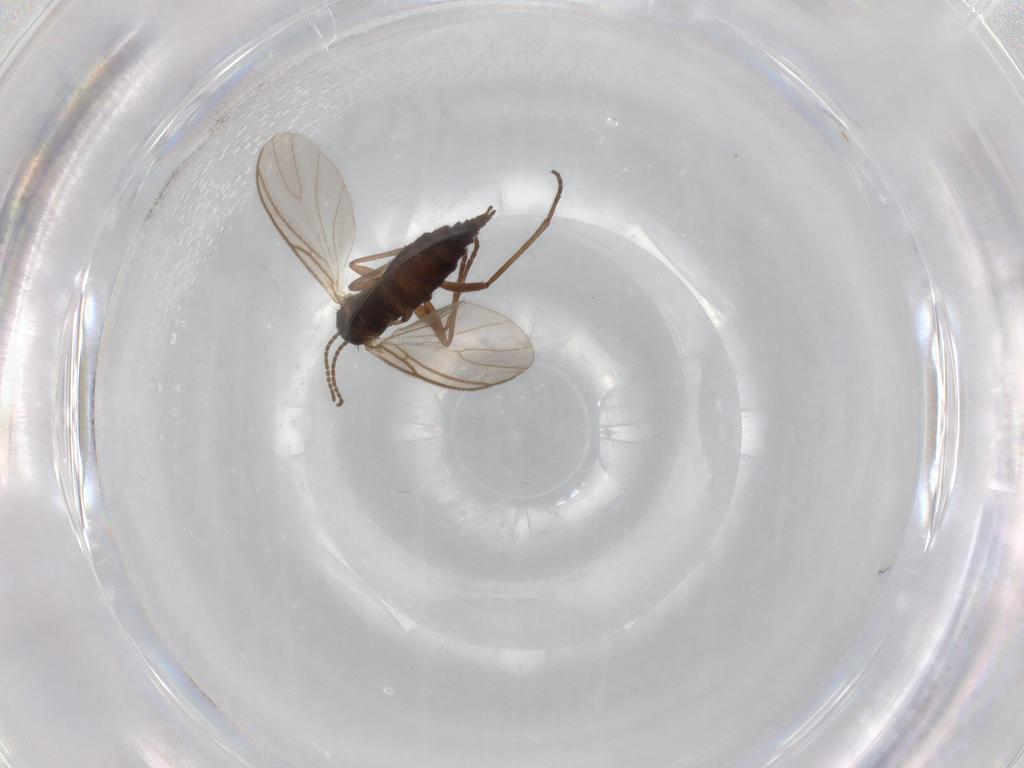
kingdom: Animalia
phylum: Arthropoda
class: Insecta
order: Diptera
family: Sciaridae
